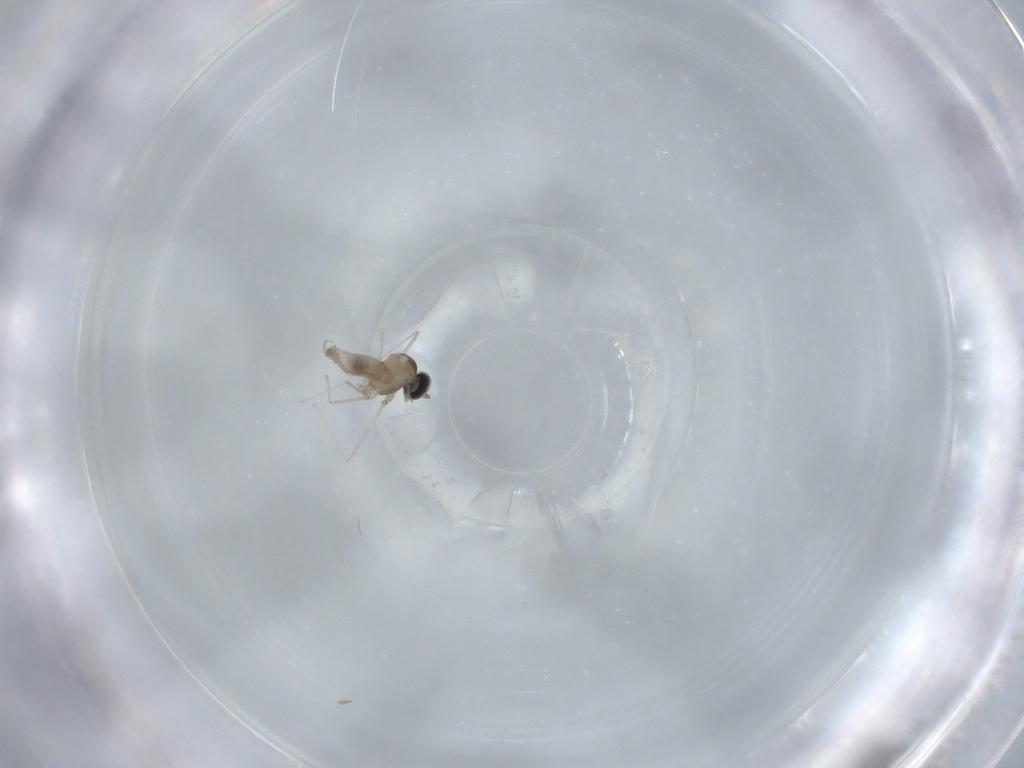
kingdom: Animalia
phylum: Arthropoda
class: Insecta
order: Diptera
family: Cecidomyiidae
